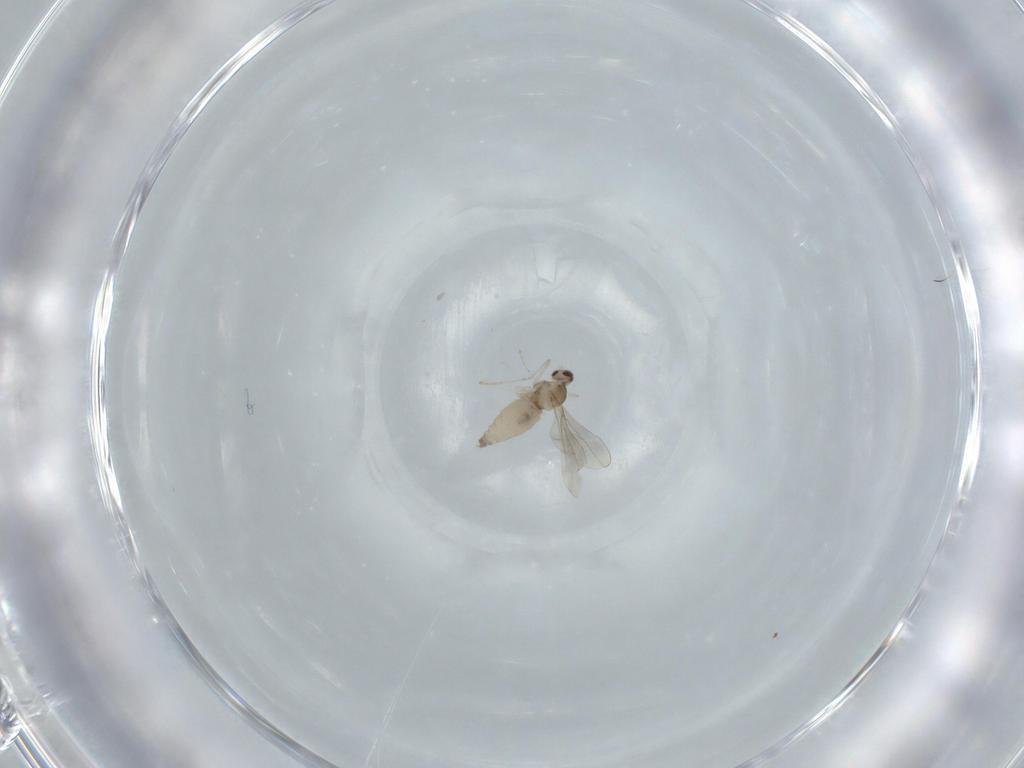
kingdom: Animalia
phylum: Arthropoda
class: Insecta
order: Diptera
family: Cecidomyiidae
